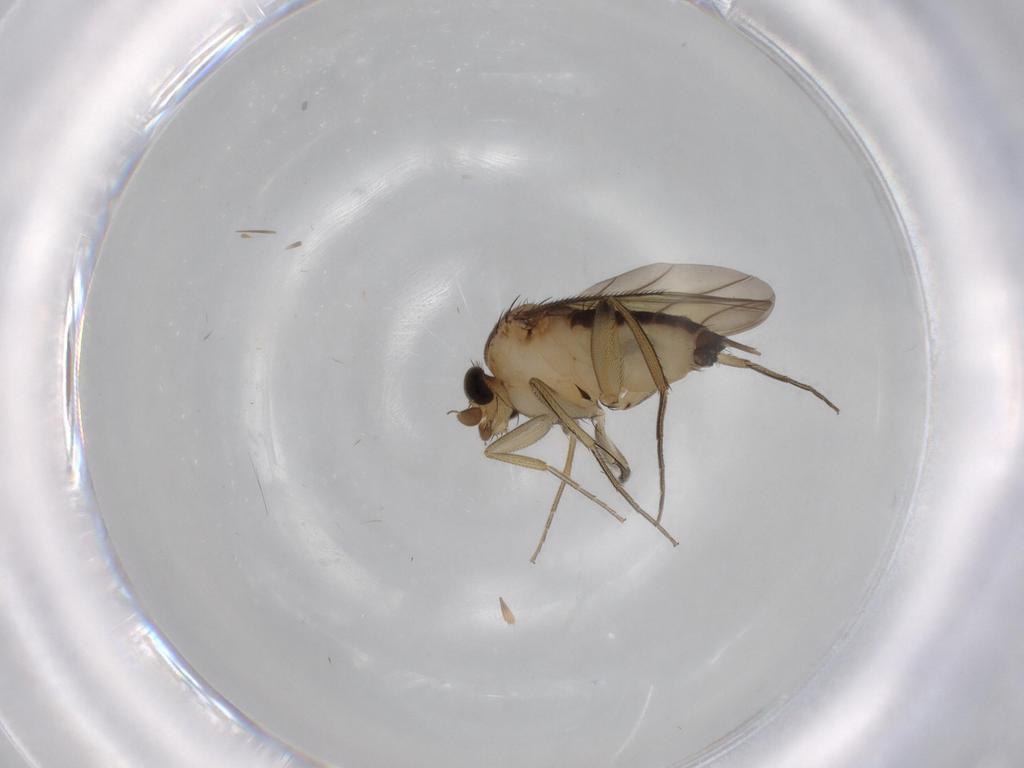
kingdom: Animalia
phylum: Arthropoda
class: Insecta
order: Diptera
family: Phoridae
